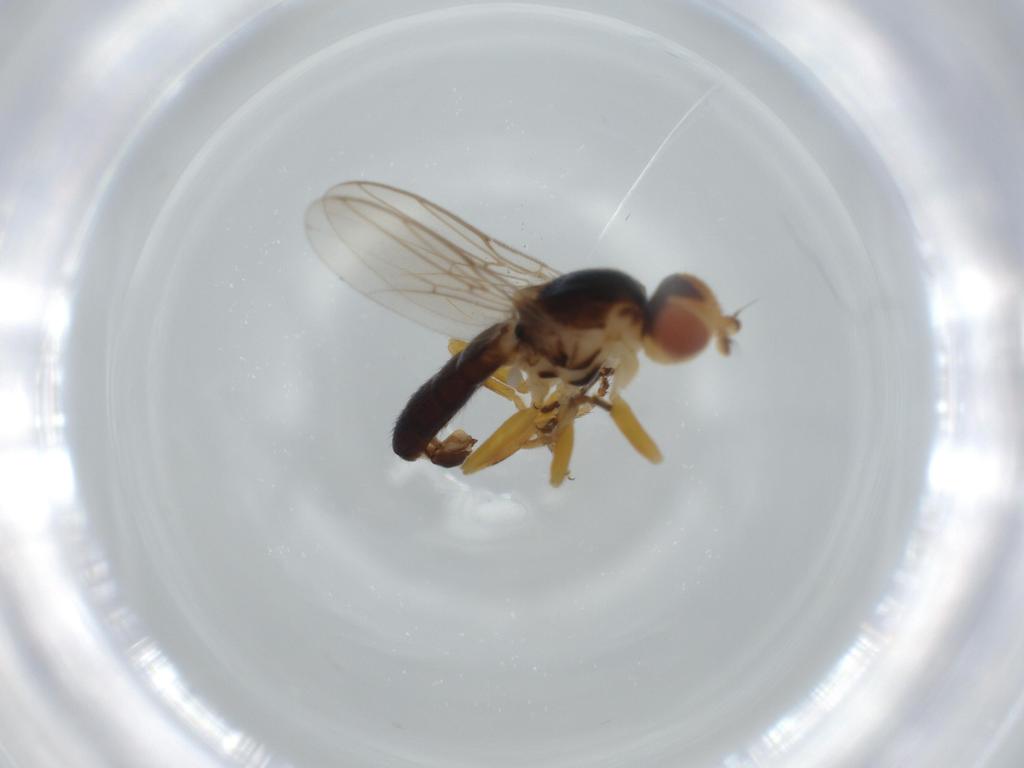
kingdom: Animalia
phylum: Arthropoda
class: Insecta
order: Diptera
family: Chloropidae
